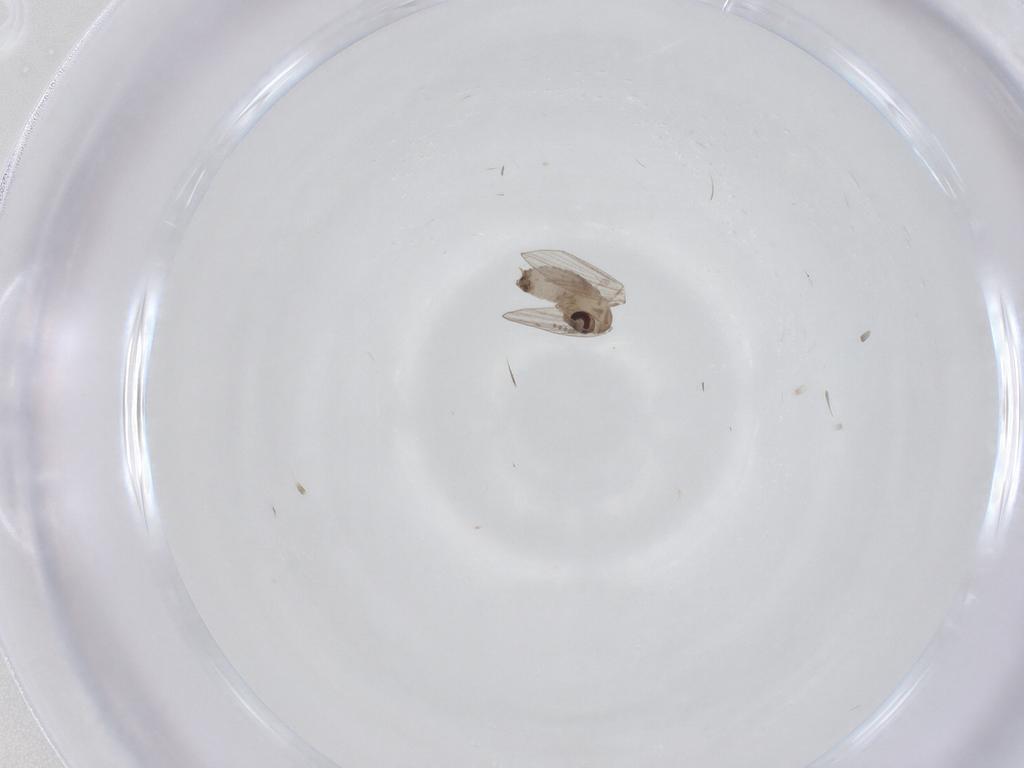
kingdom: Animalia
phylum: Arthropoda
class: Insecta
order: Diptera
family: Psychodidae
